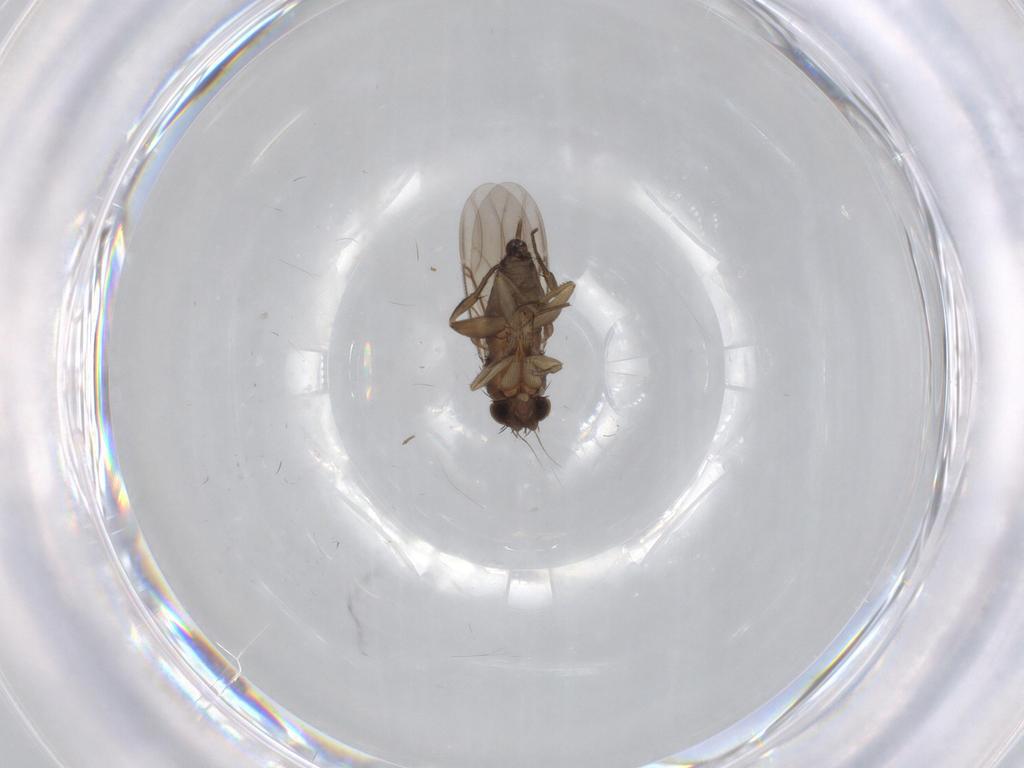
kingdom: Animalia
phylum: Arthropoda
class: Insecta
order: Diptera
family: Phoridae
